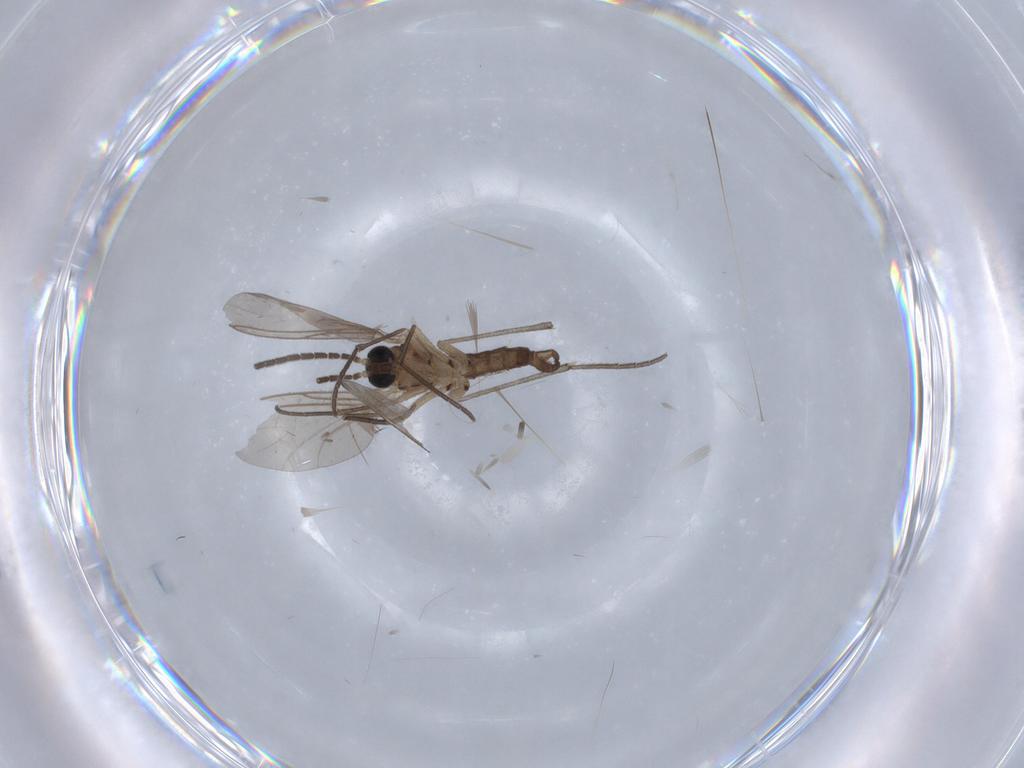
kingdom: Animalia
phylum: Arthropoda
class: Insecta
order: Diptera
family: Sciaridae
